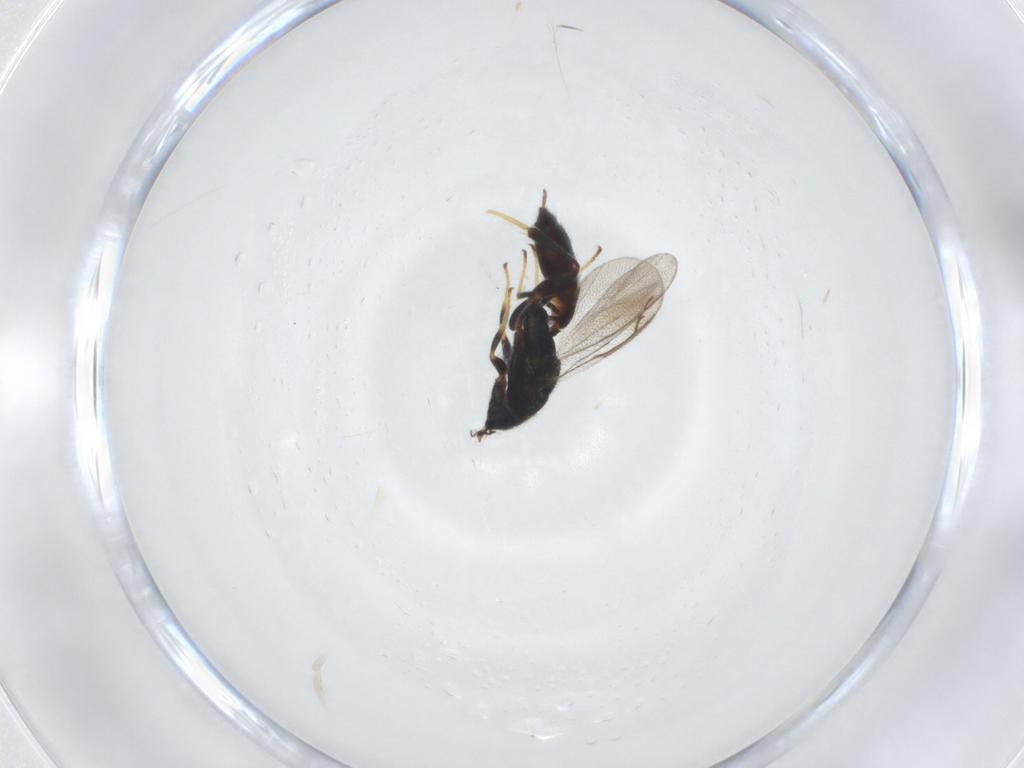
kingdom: Animalia
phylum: Arthropoda
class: Insecta
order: Hymenoptera
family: Cleonyminae
